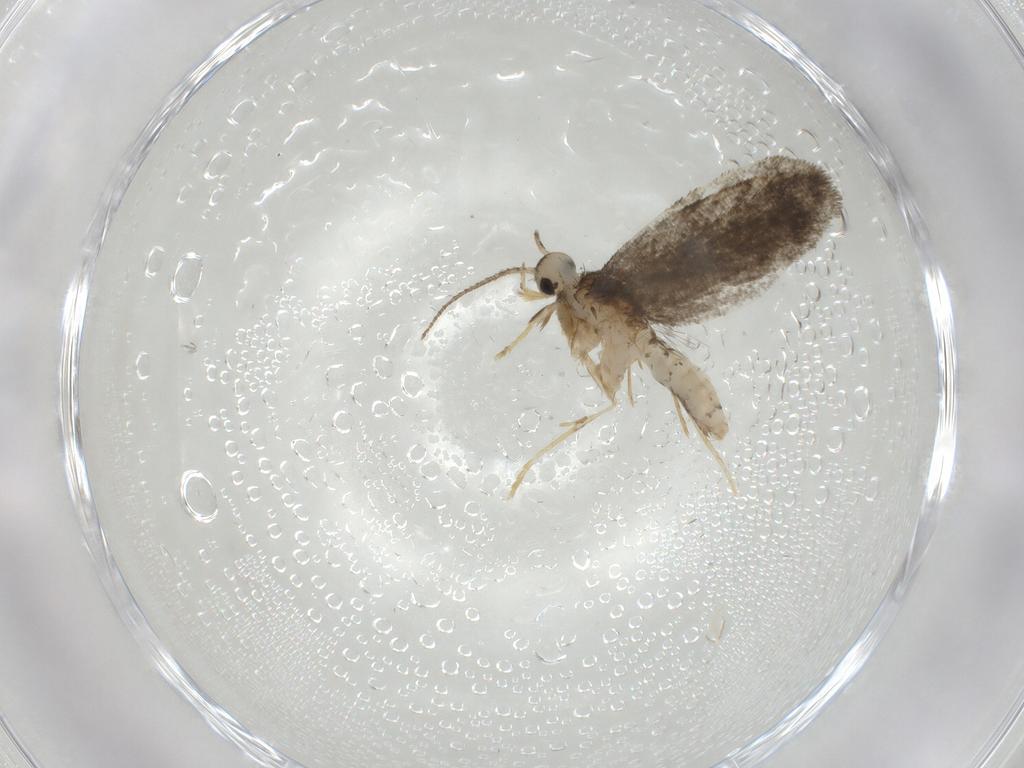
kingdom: Animalia
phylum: Arthropoda
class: Insecta
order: Lepidoptera
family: Psychidae
